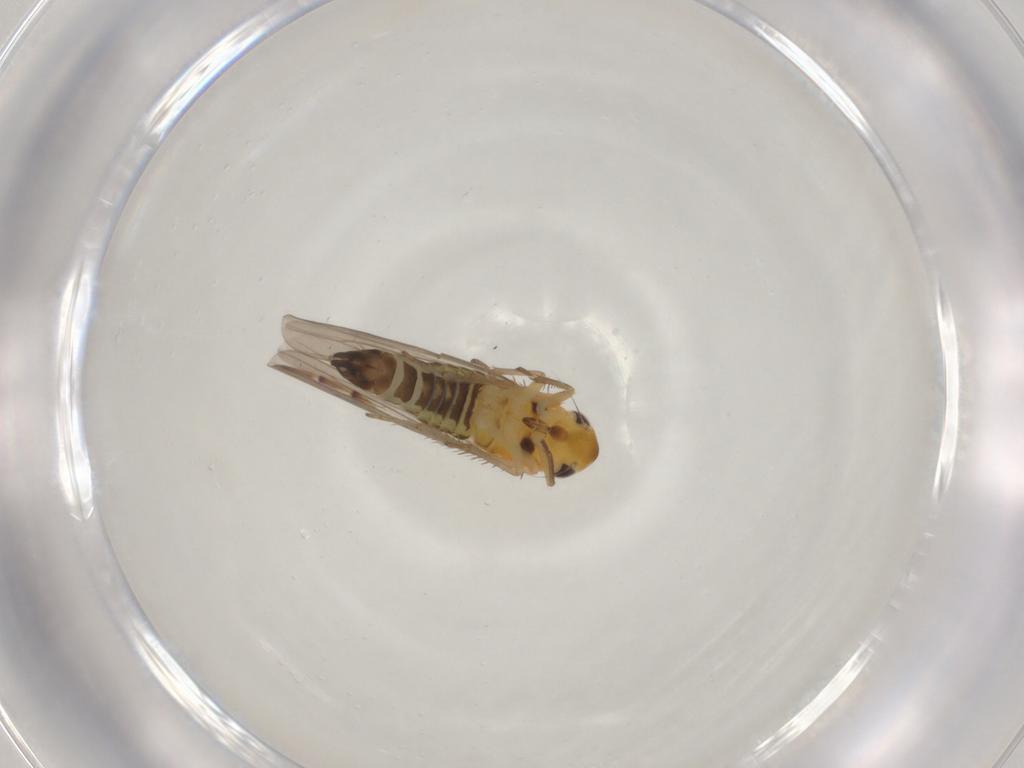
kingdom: Animalia
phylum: Arthropoda
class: Insecta
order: Hemiptera
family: Cicadellidae
